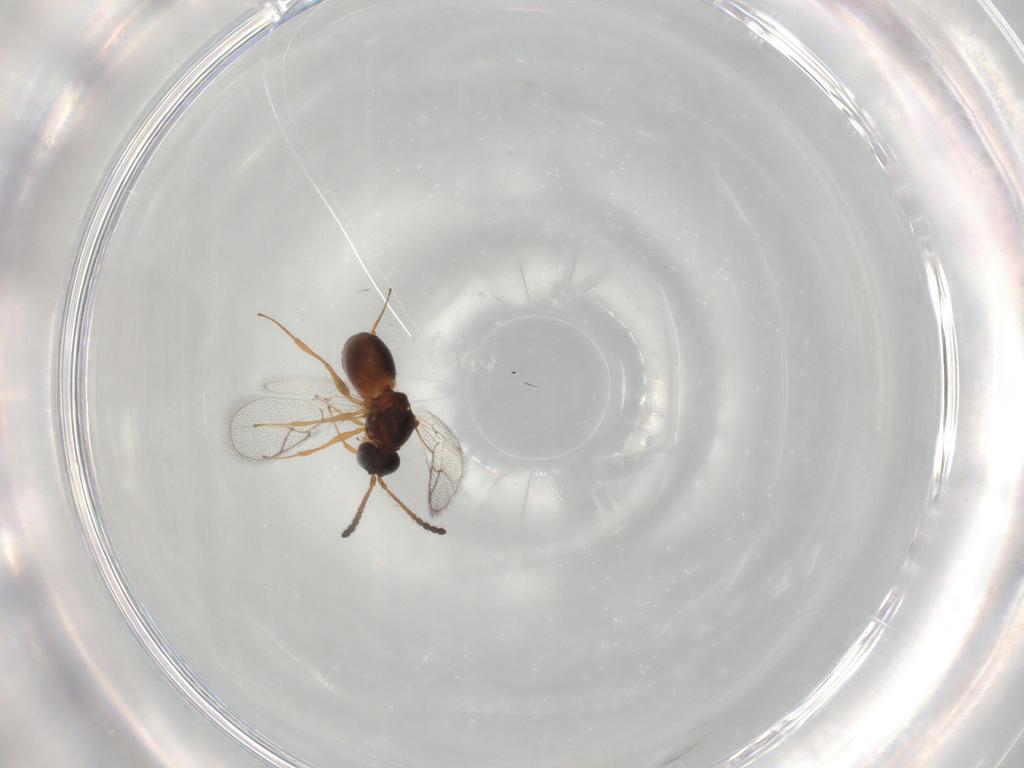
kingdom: Animalia
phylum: Arthropoda
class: Insecta
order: Hymenoptera
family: Figitidae
